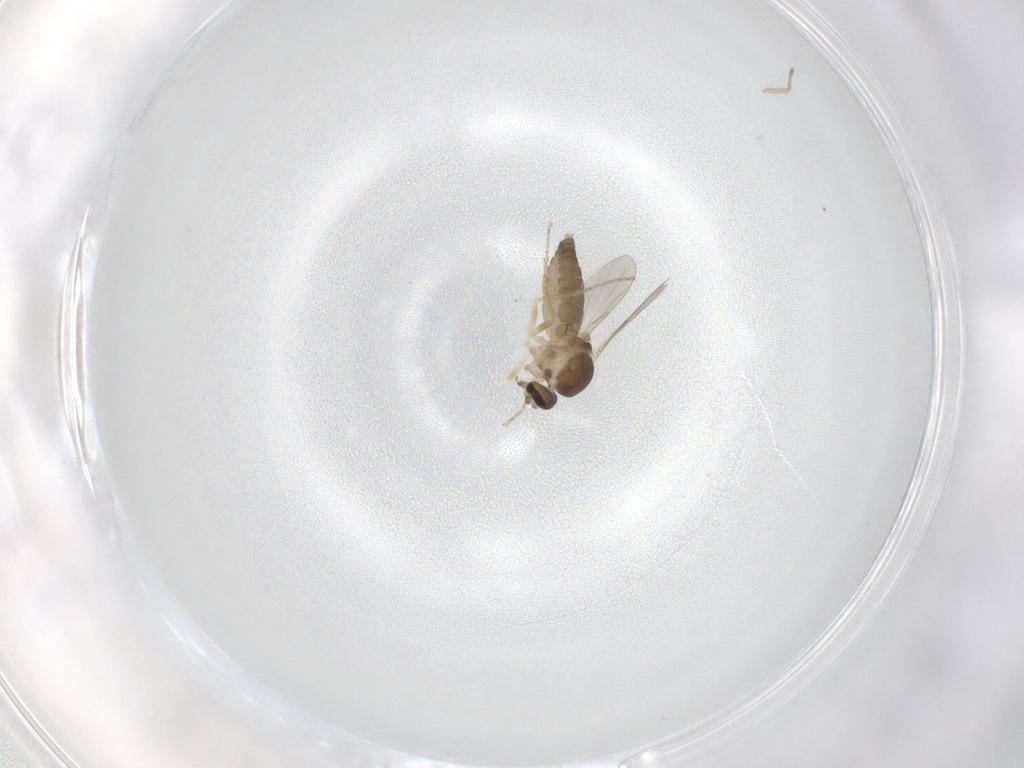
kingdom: Animalia
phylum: Arthropoda
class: Insecta
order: Diptera
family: Ceratopogonidae
